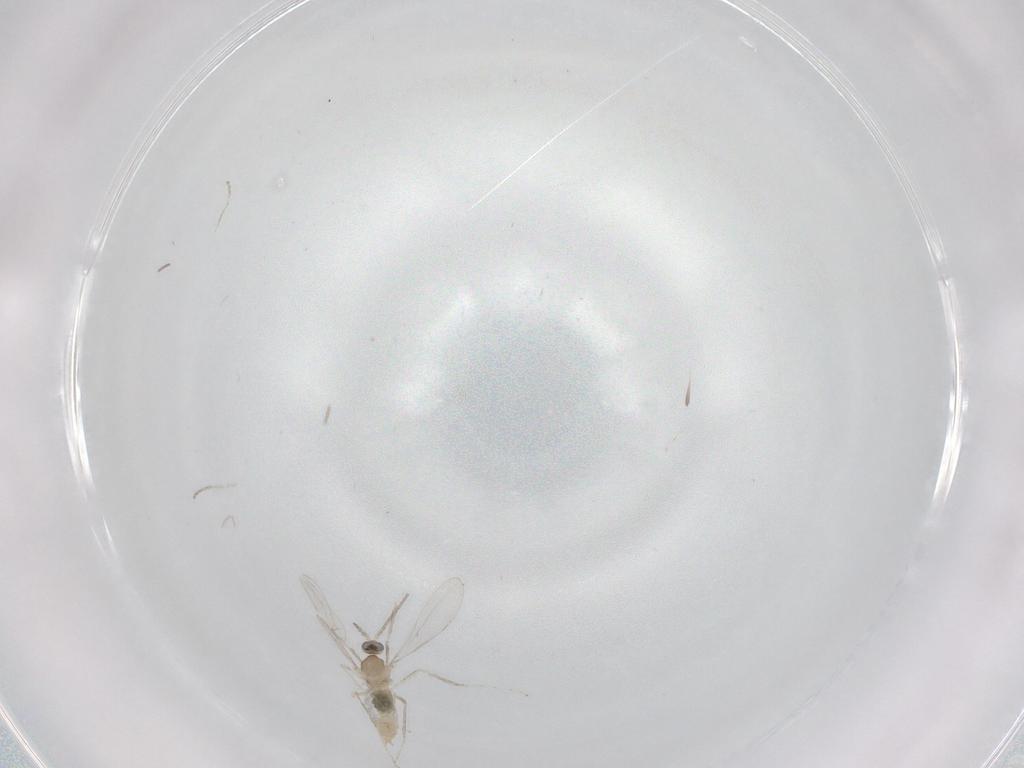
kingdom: Animalia
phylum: Arthropoda
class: Insecta
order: Diptera
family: Cecidomyiidae
